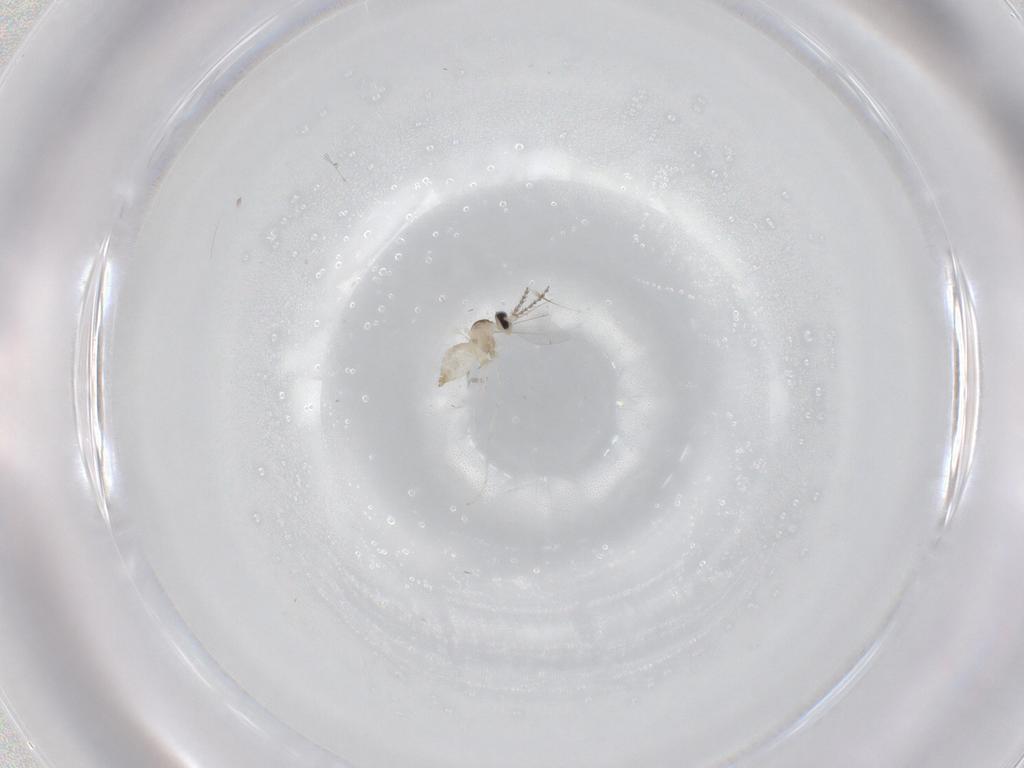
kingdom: Animalia
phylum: Arthropoda
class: Insecta
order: Diptera
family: Cecidomyiidae
